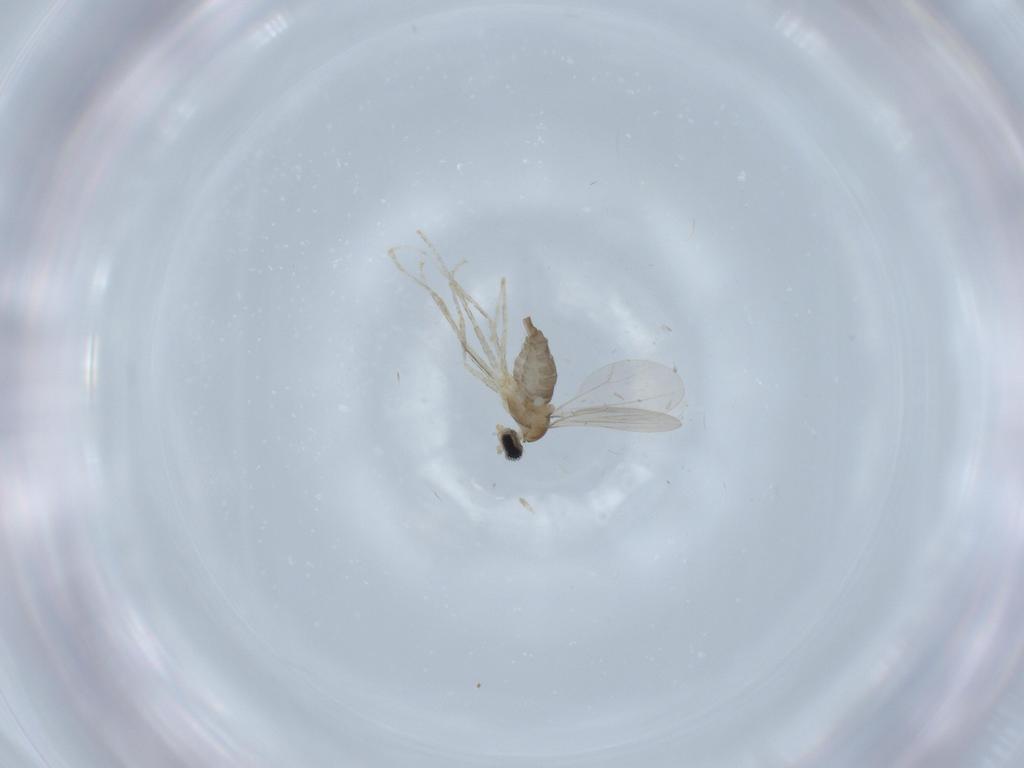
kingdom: Animalia
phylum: Arthropoda
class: Insecta
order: Diptera
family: Cecidomyiidae
